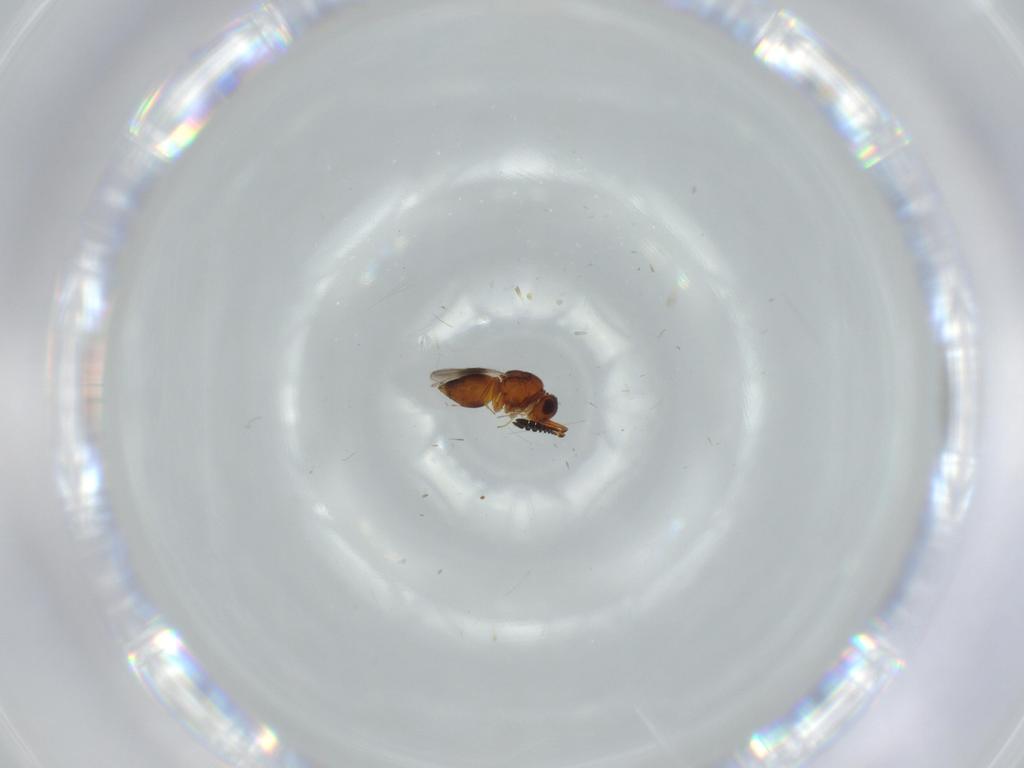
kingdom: Animalia
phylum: Arthropoda
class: Insecta
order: Hymenoptera
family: Ceraphronidae
